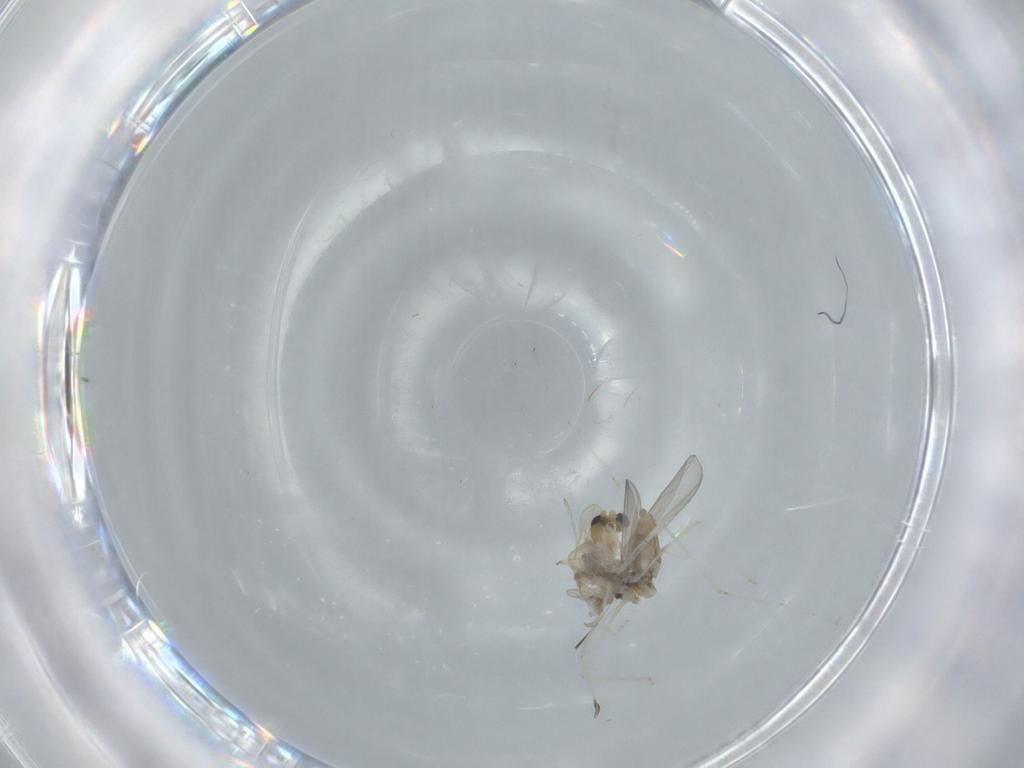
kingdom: Animalia
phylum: Arthropoda
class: Insecta
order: Diptera
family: Chironomidae
